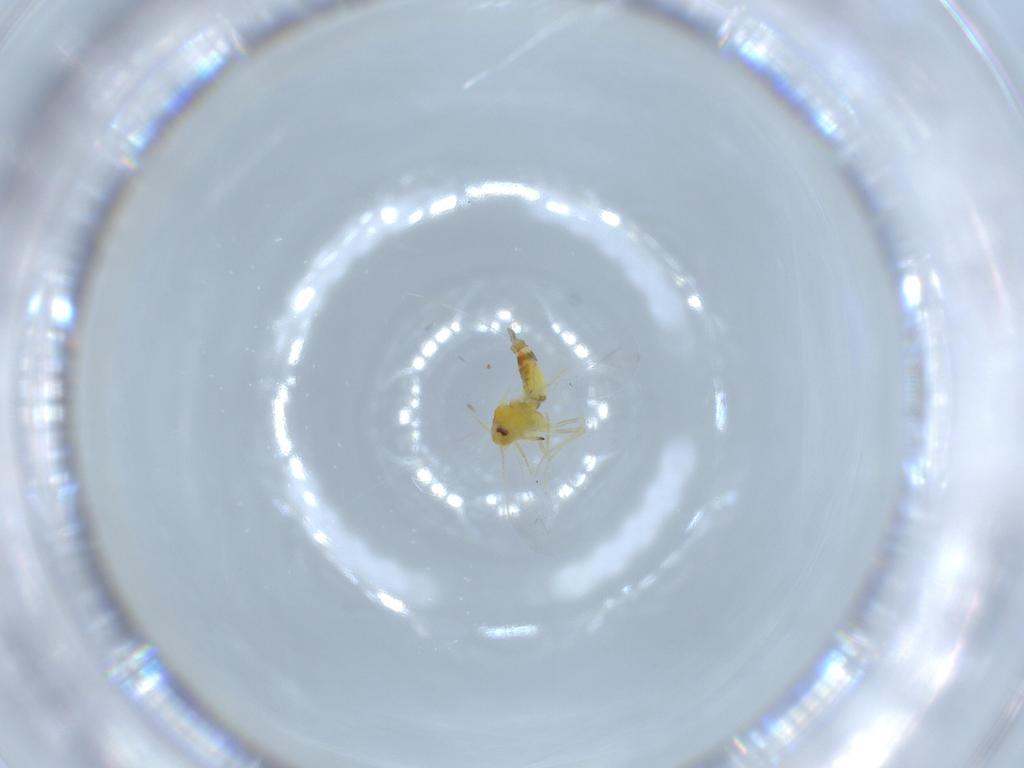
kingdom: Animalia
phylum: Arthropoda
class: Insecta
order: Hemiptera
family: Aleyrodidae
